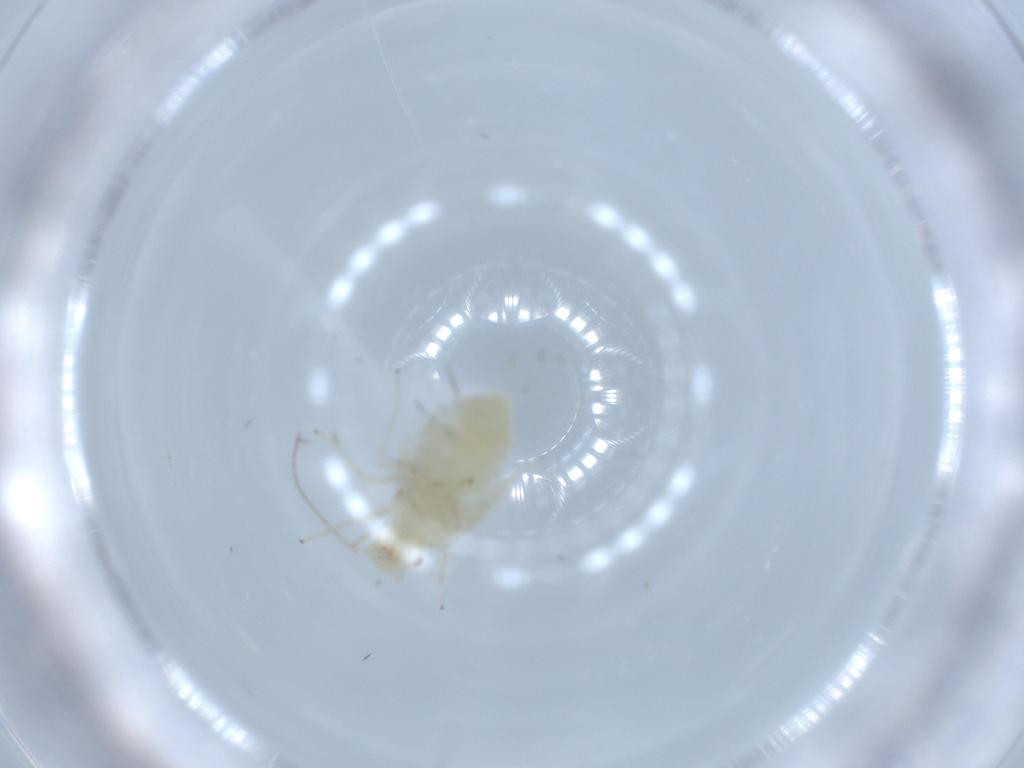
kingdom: Animalia
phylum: Arthropoda
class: Insecta
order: Psocodea
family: Caeciliusidae
